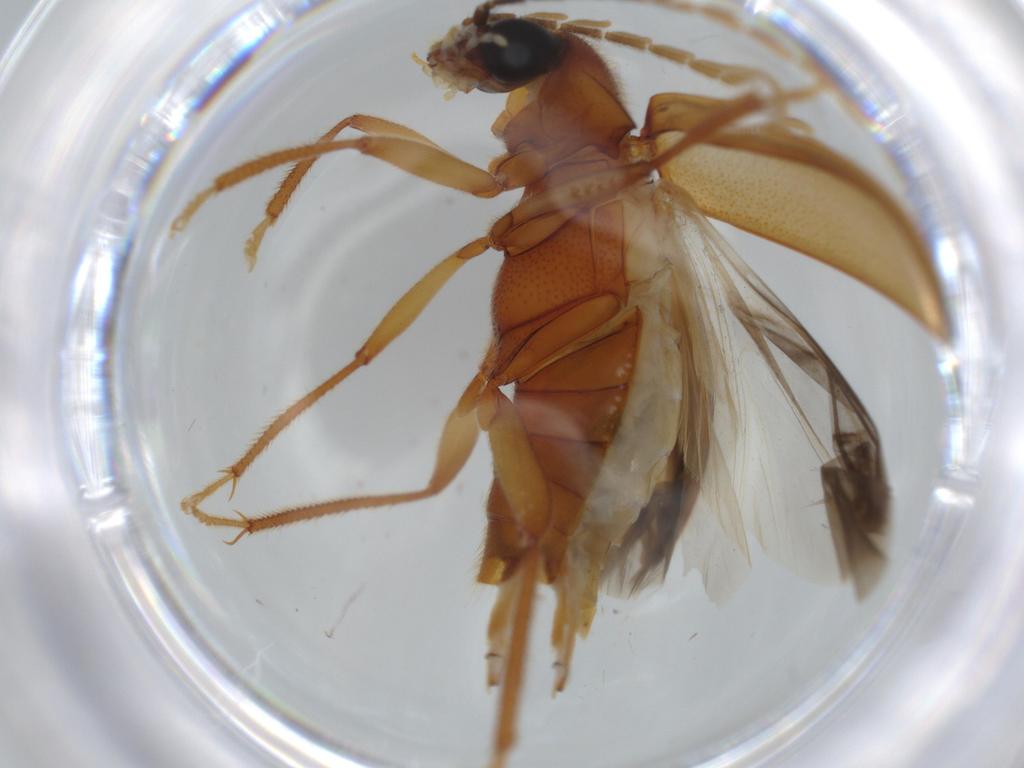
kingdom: Animalia
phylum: Arthropoda
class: Insecta
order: Coleoptera
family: Ptilodactylidae
